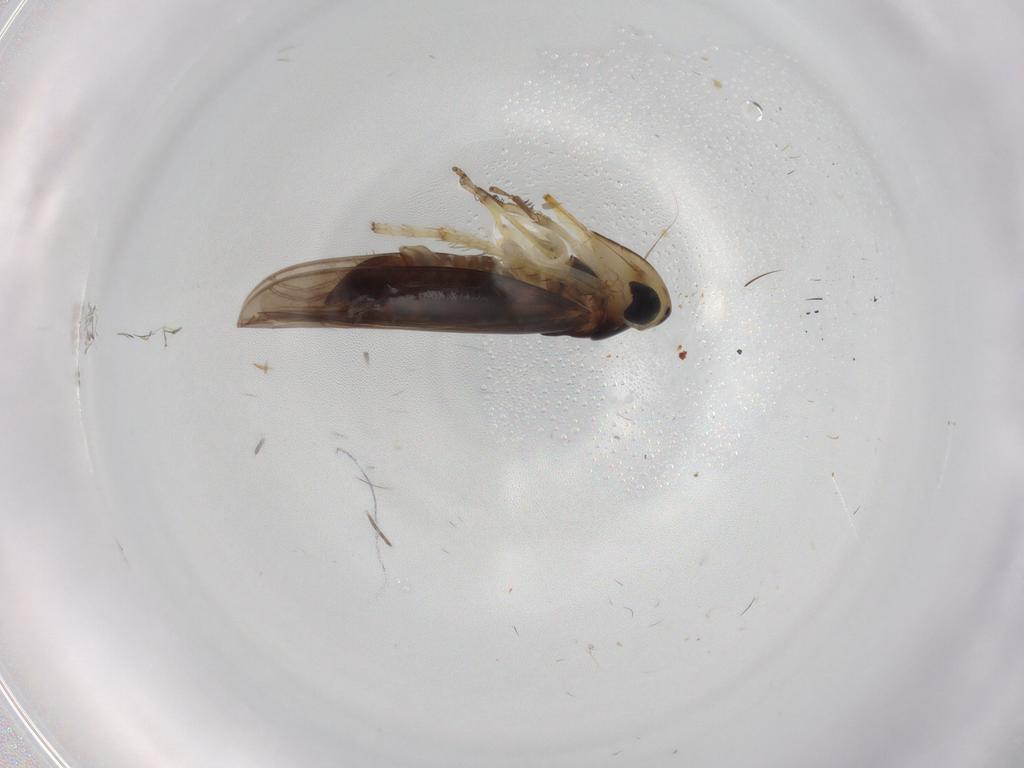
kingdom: Animalia
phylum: Arthropoda
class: Insecta
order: Hemiptera
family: Cicadellidae
